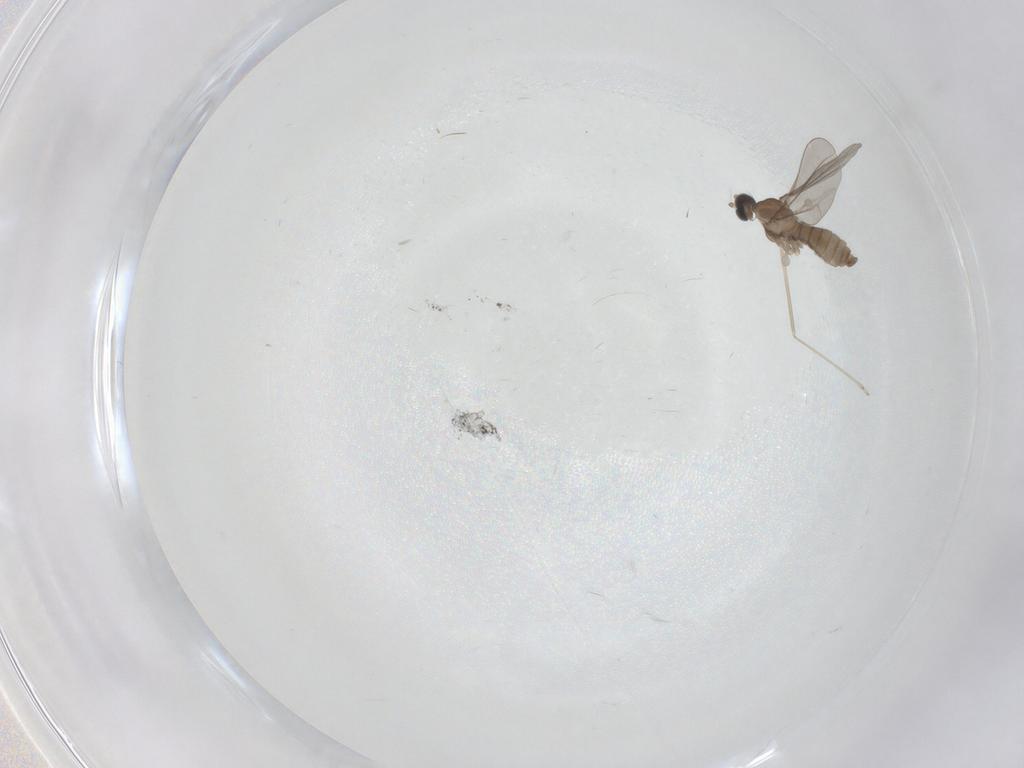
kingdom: Animalia
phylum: Arthropoda
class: Insecta
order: Diptera
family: Cecidomyiidae
